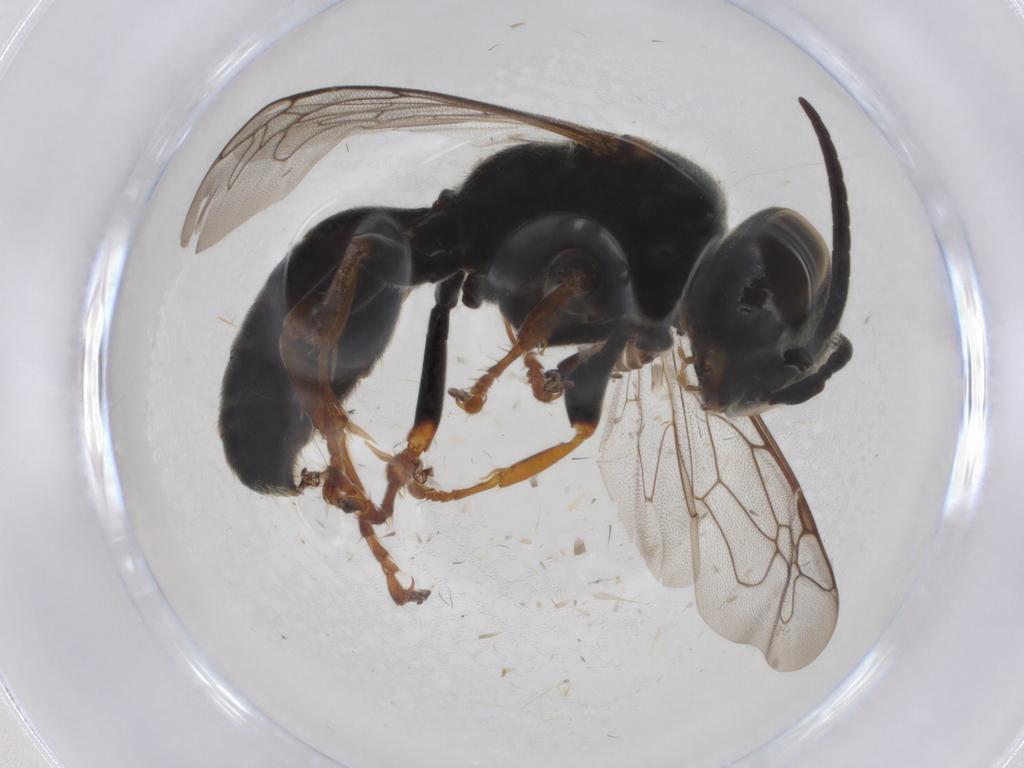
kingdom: Animalia
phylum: Arthropoda
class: Insecta
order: Hymenoptera
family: Crabronidae
